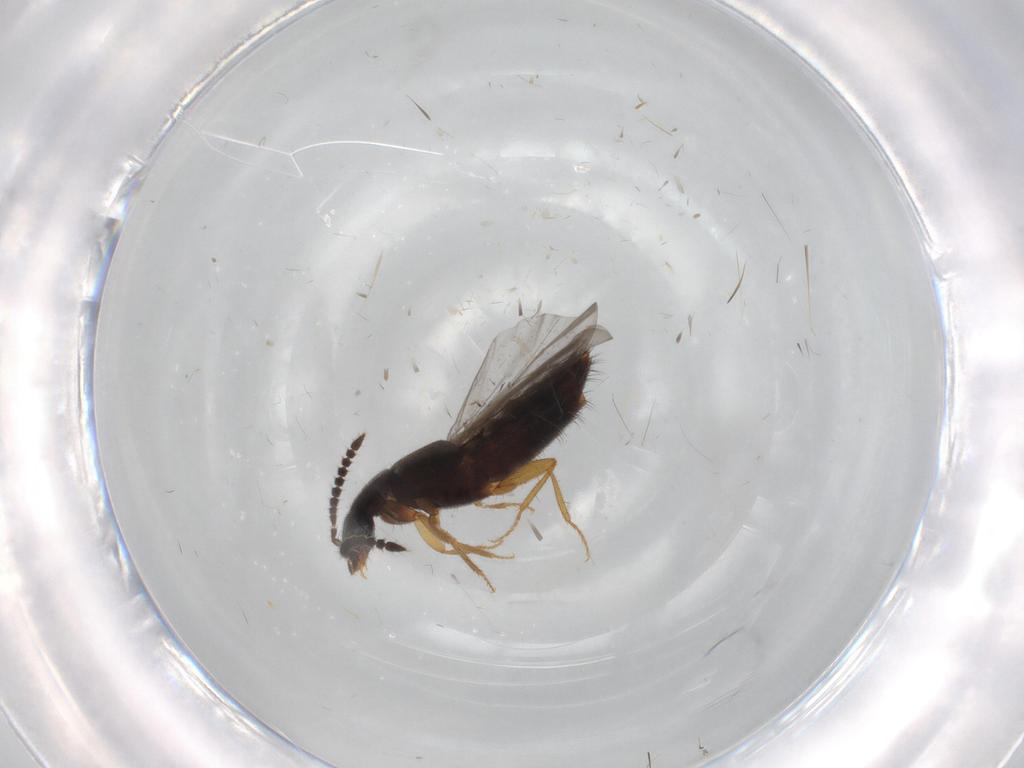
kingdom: Animalia
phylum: Arthropoda
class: Insecta
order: Coleoptera
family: Staphylinidae
